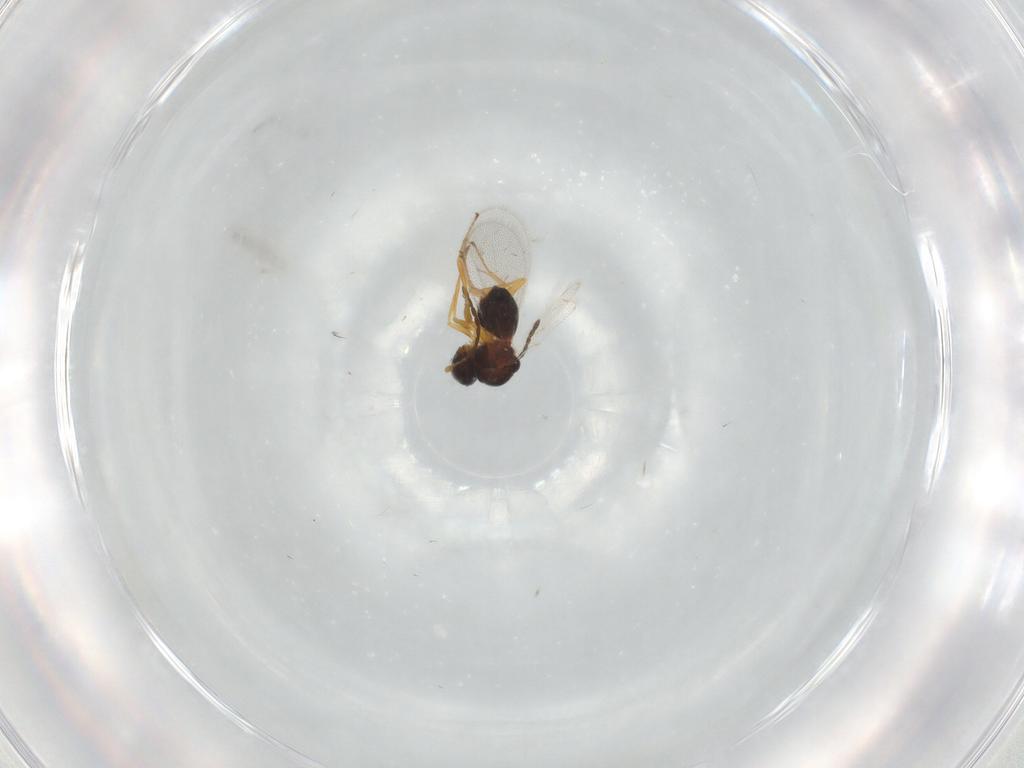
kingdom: Animalia
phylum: Arthropoda
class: Insecta
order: Hymenoptera
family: Figitidae
